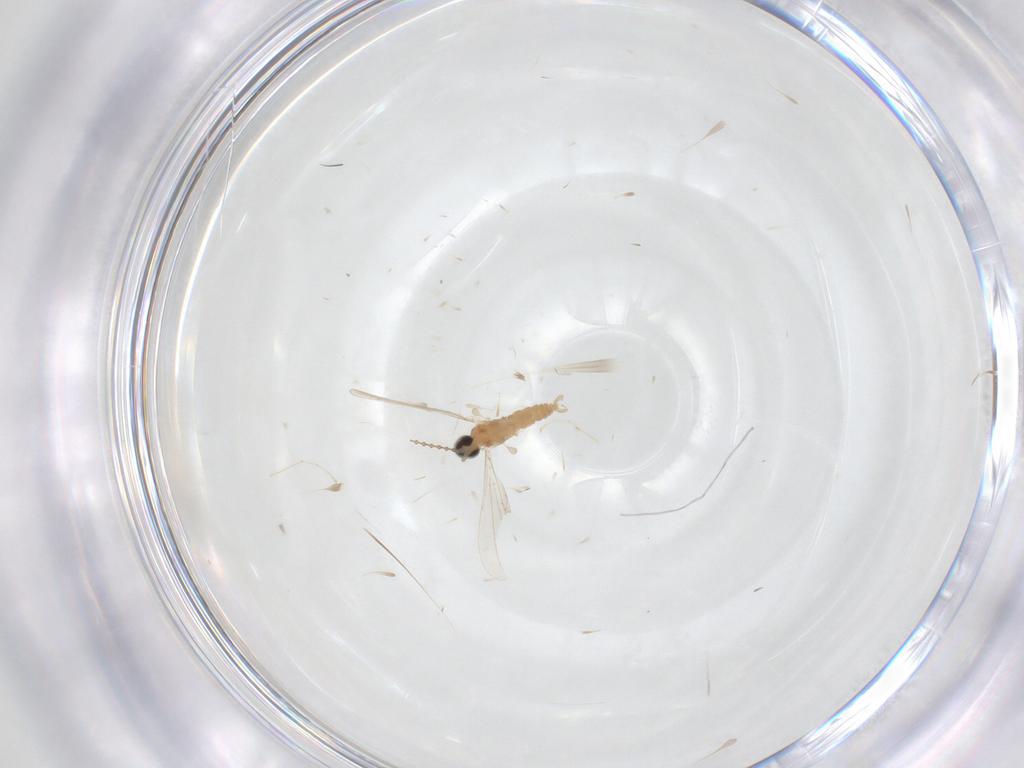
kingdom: Animalia
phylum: Arthropoda
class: Insecta
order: Diptera
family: Cecidomyiidae
